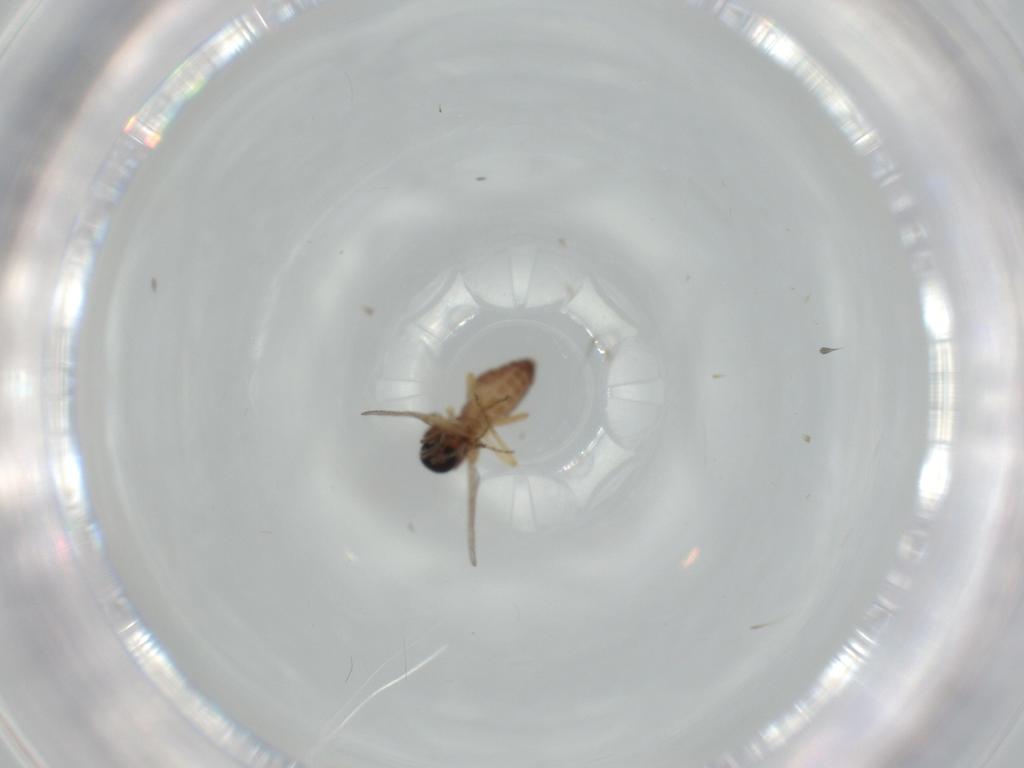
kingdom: Animalia
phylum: Arthropoda
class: Insecta
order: Diptera
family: Ceratopogonidae
